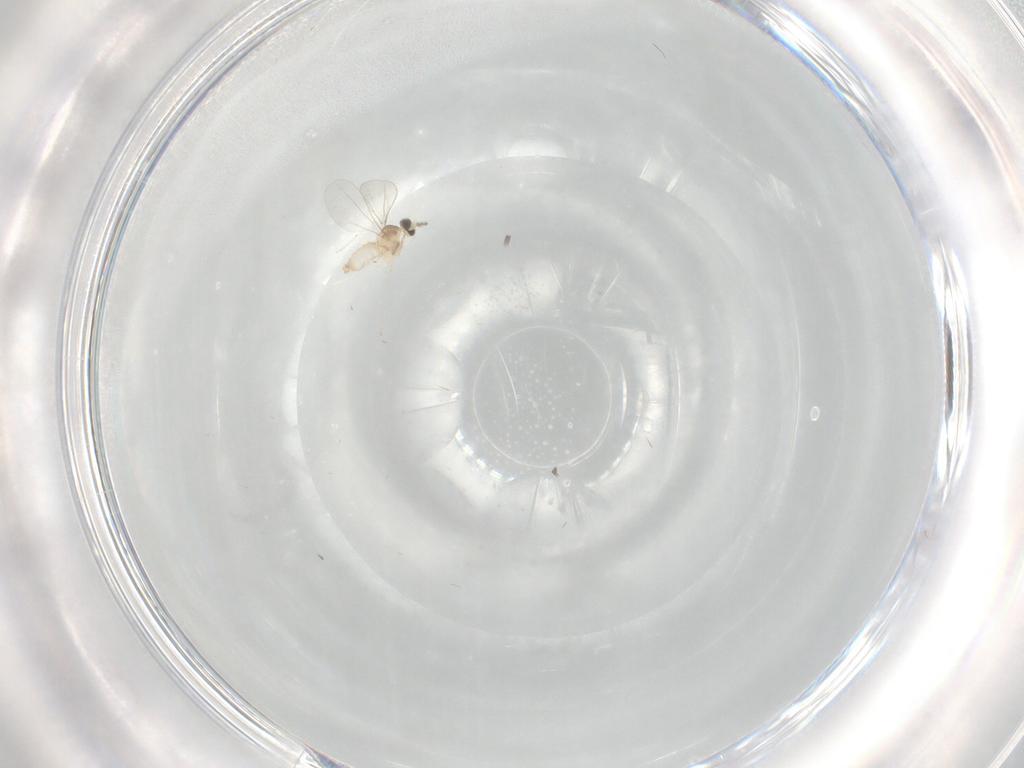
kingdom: Animalia
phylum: Arthropoda
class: Insecta
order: Diptera
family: Cecidomyiidae
